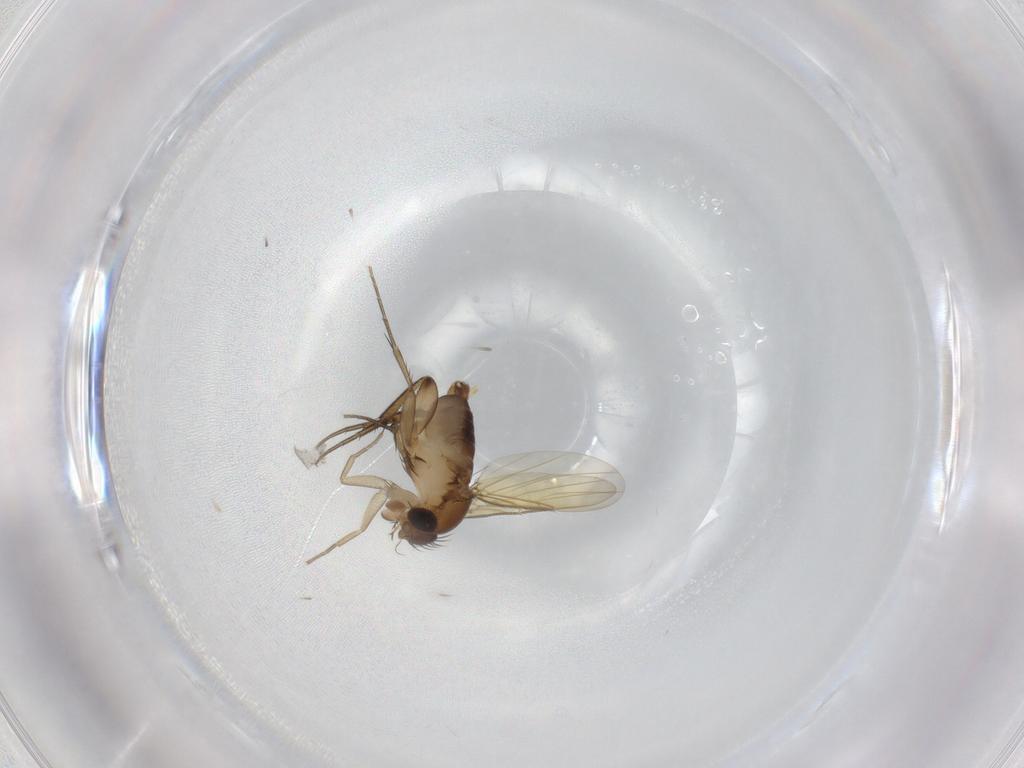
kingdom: Animalia
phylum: Arthropoda
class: Insecta
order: Diptera
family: Phoridae
